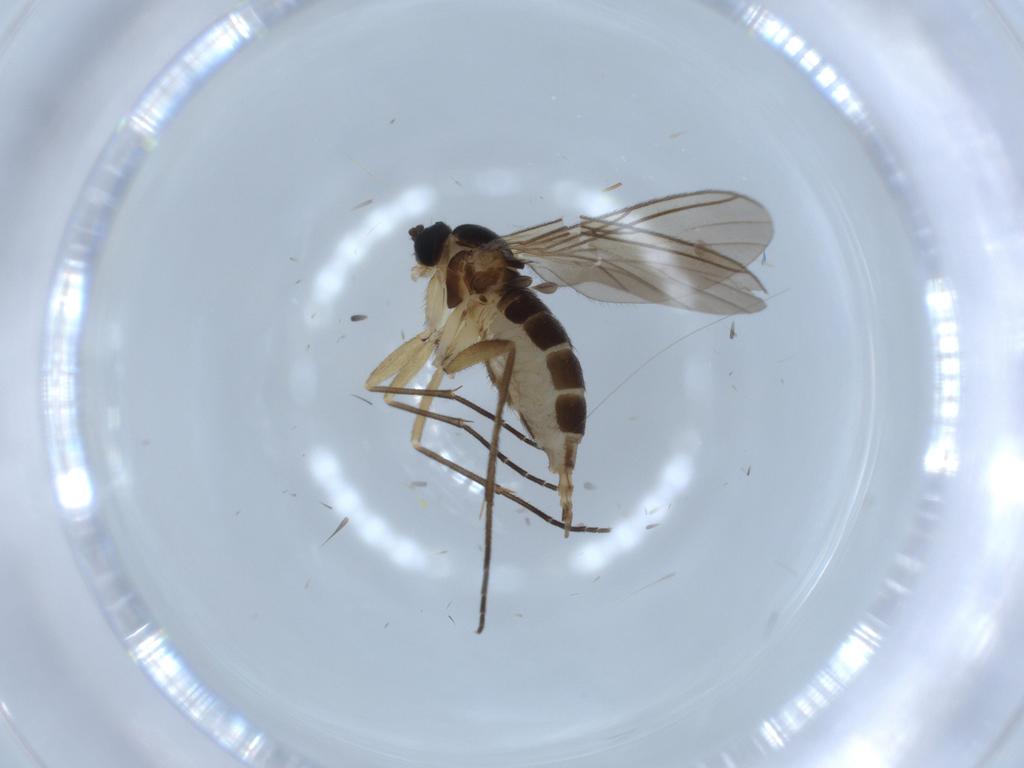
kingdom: Animalia
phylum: Arthropoda
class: Insecta
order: Diptera
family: Sciaridae
